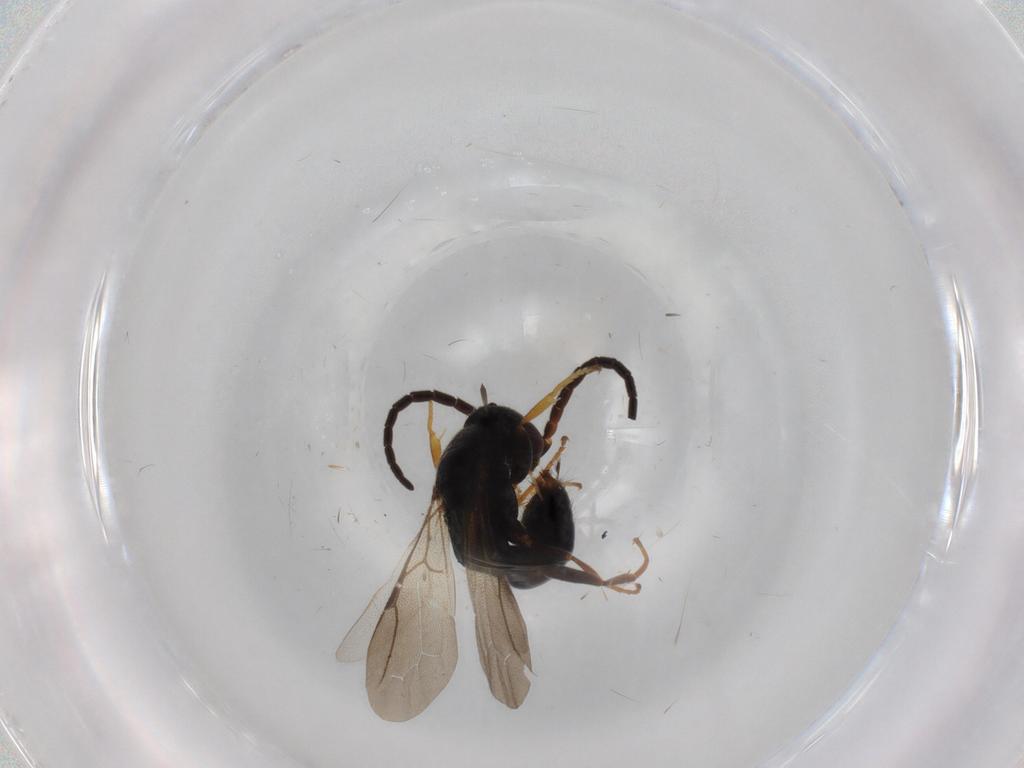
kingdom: Animalia
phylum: Arthropoda
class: Insecta
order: Hymenoptera
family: Bethylidae
